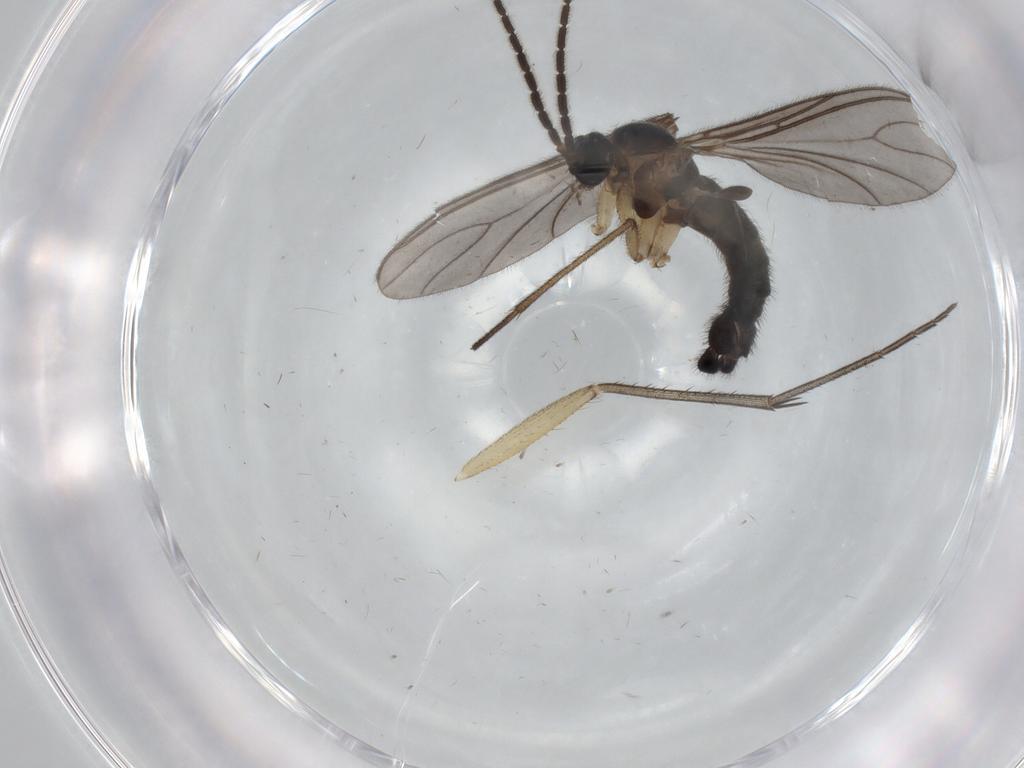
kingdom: Animalia
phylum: Arthropoda
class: Insecta
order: Diptera
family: Sciaridae
